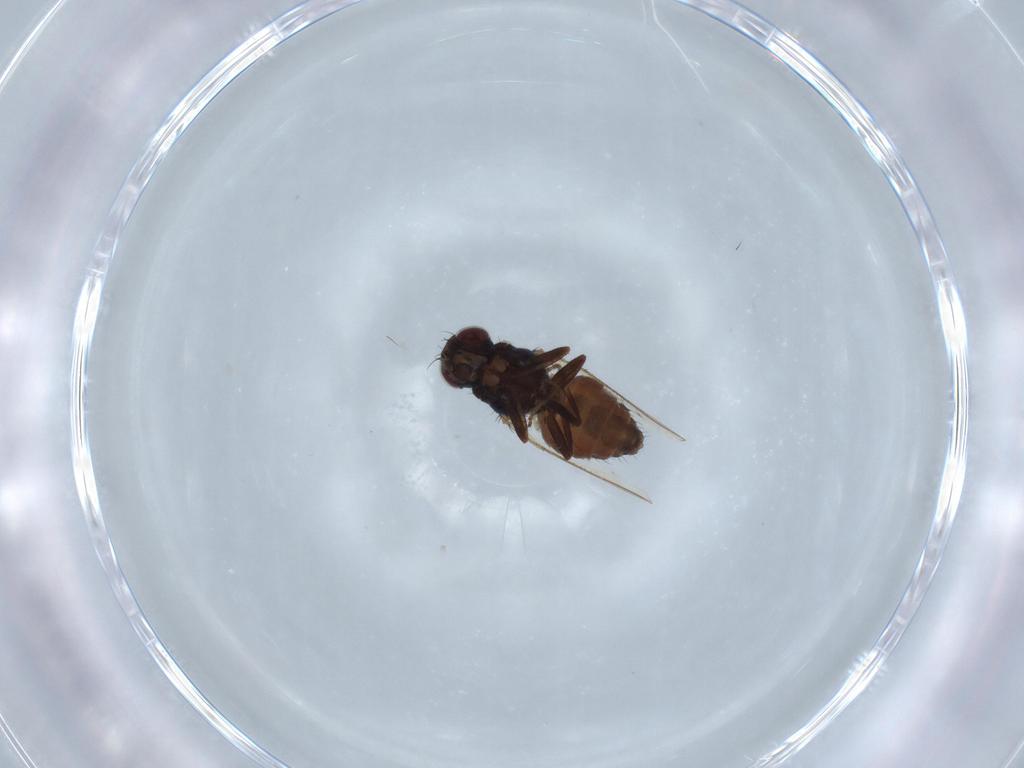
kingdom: Animalia
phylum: Arthropoda
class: Insecta
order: Diptera
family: Carnidae
